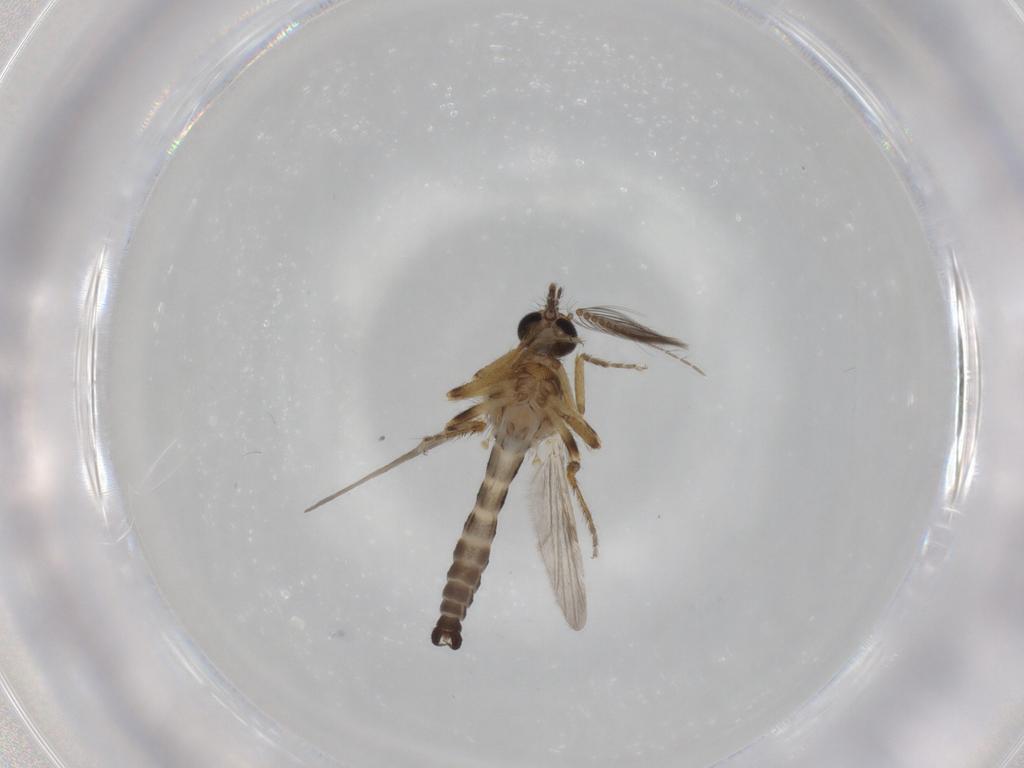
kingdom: Animalia
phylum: Arthropoda
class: Insecta
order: Diptera
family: Ceratopogonidae
